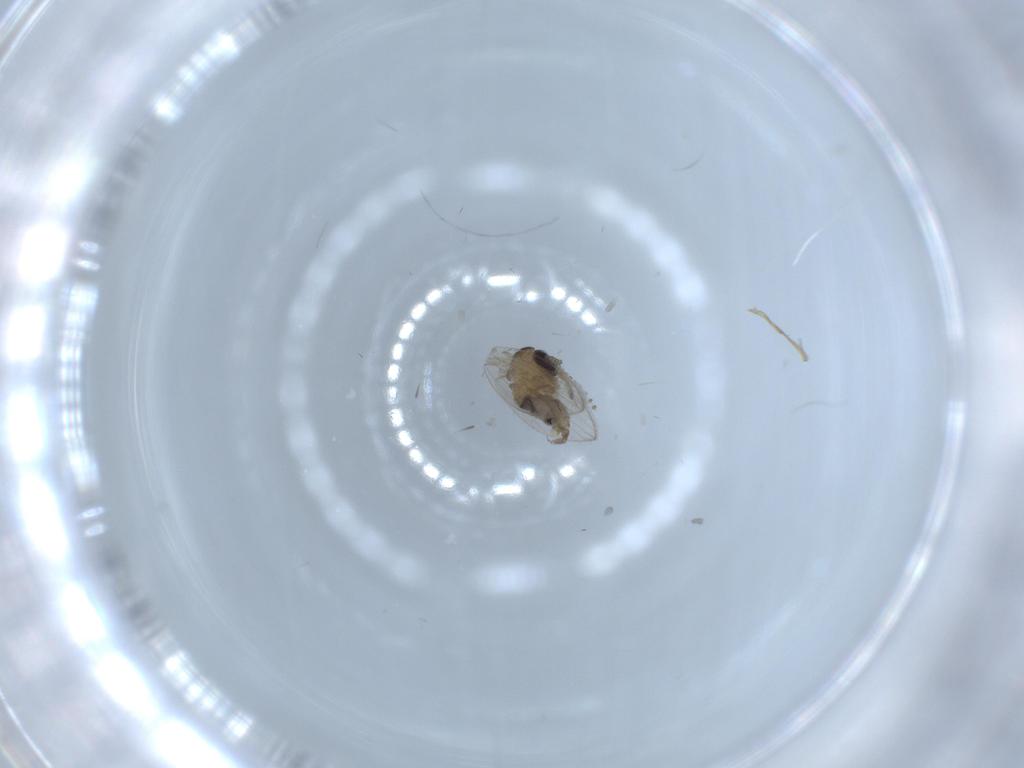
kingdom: Animalia
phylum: Arthropoda
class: Insecta
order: Diptera
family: Psychodidae
